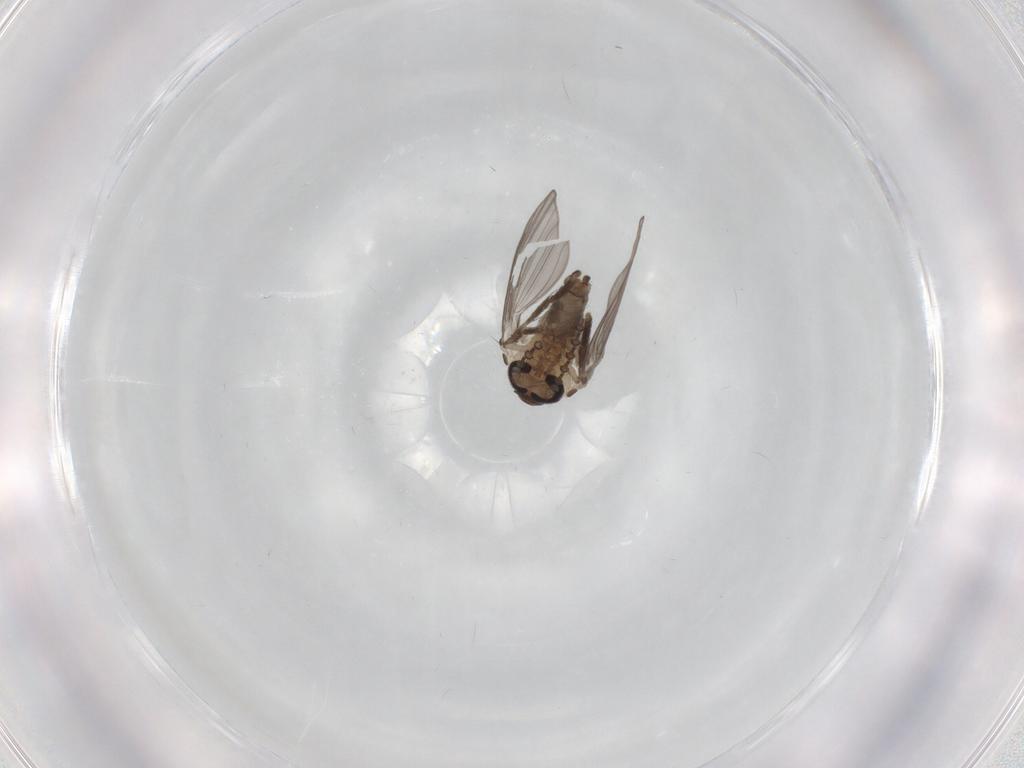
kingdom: Animalia
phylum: Arthropoda
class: Insecta
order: Diptera
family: Psychodidae
